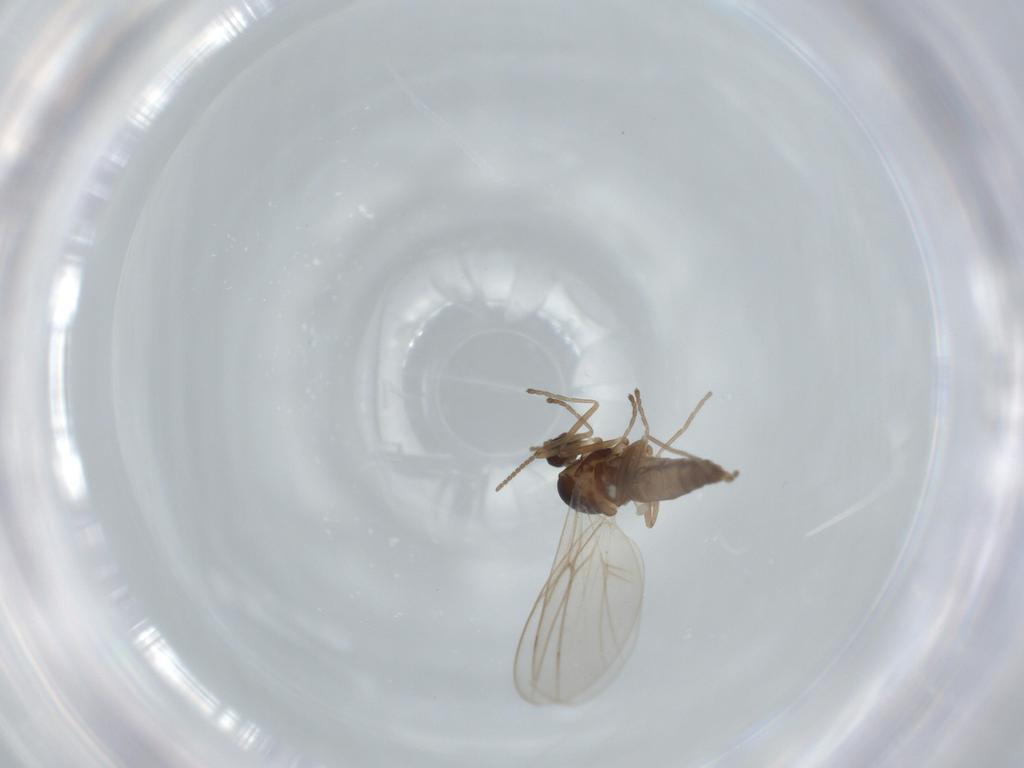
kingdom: Animalia
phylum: Arthropoda
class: Insecta
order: Diptera
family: Cecidomyiidae
